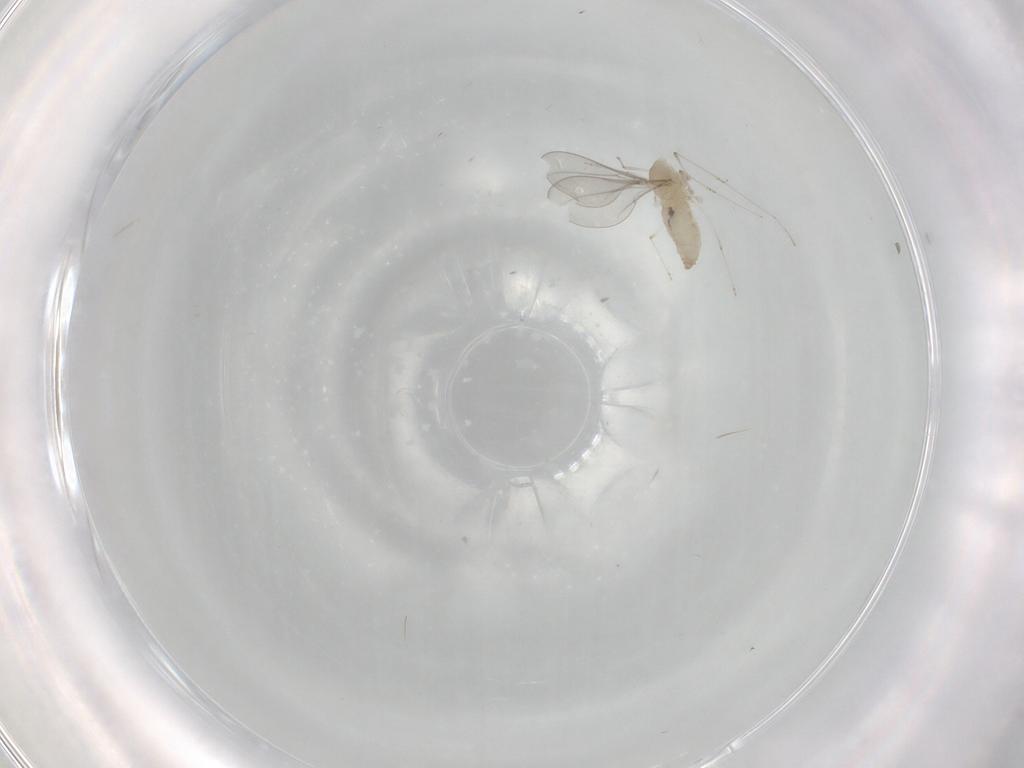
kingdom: Animalia
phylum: Arthropoda
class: Insecta
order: Diptera
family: Cecidomyiidae
